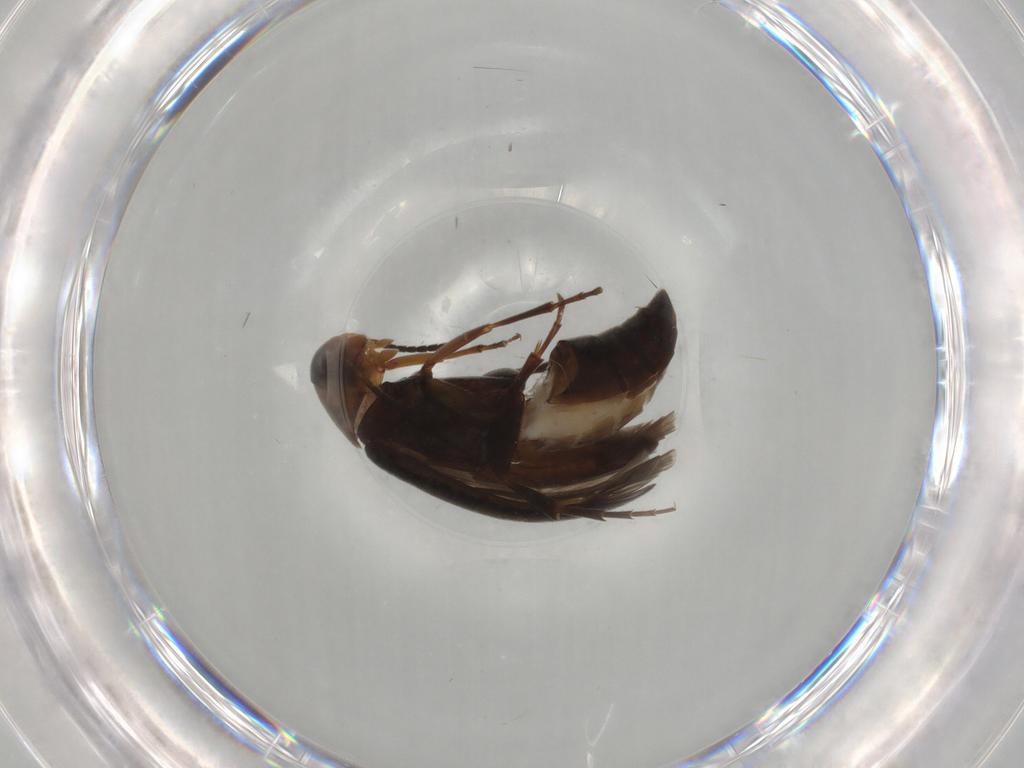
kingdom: Animalia
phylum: Arthropoda
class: Insecta
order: Coleoptera
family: Scraptiidae
